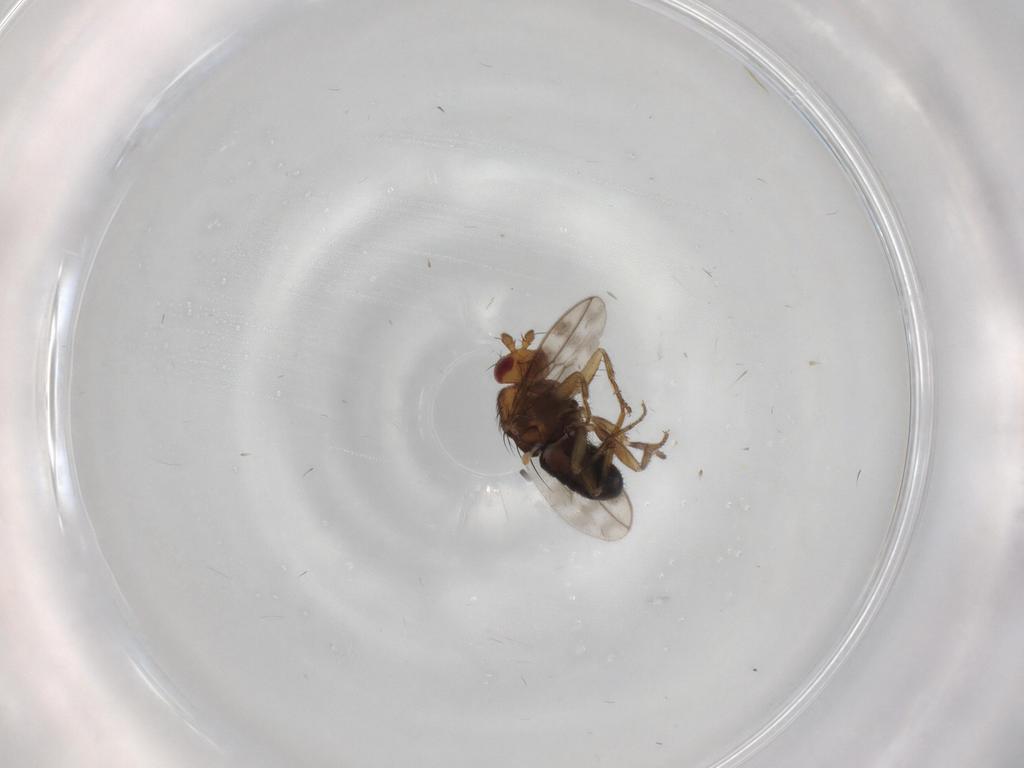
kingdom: Animalia
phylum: Arthropoda
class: Insecta
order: Diptera
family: Sphaeroceridae
